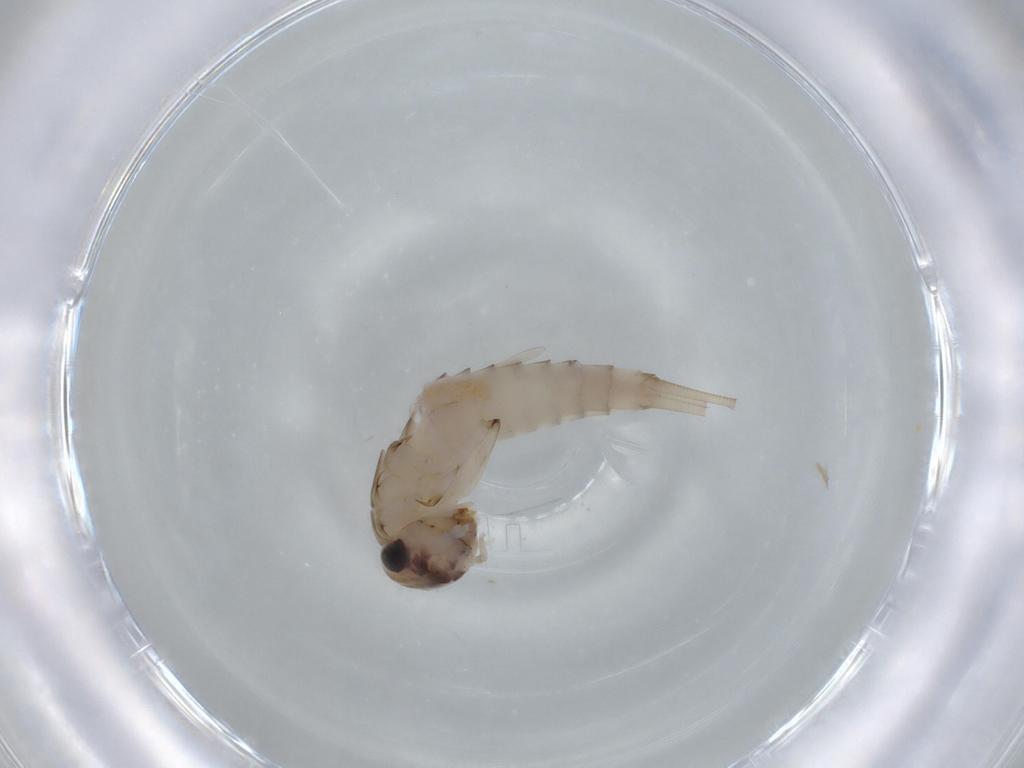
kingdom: Animalia
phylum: Arthropoda
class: Insecta
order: Ephemeroptera
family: Baetidae
